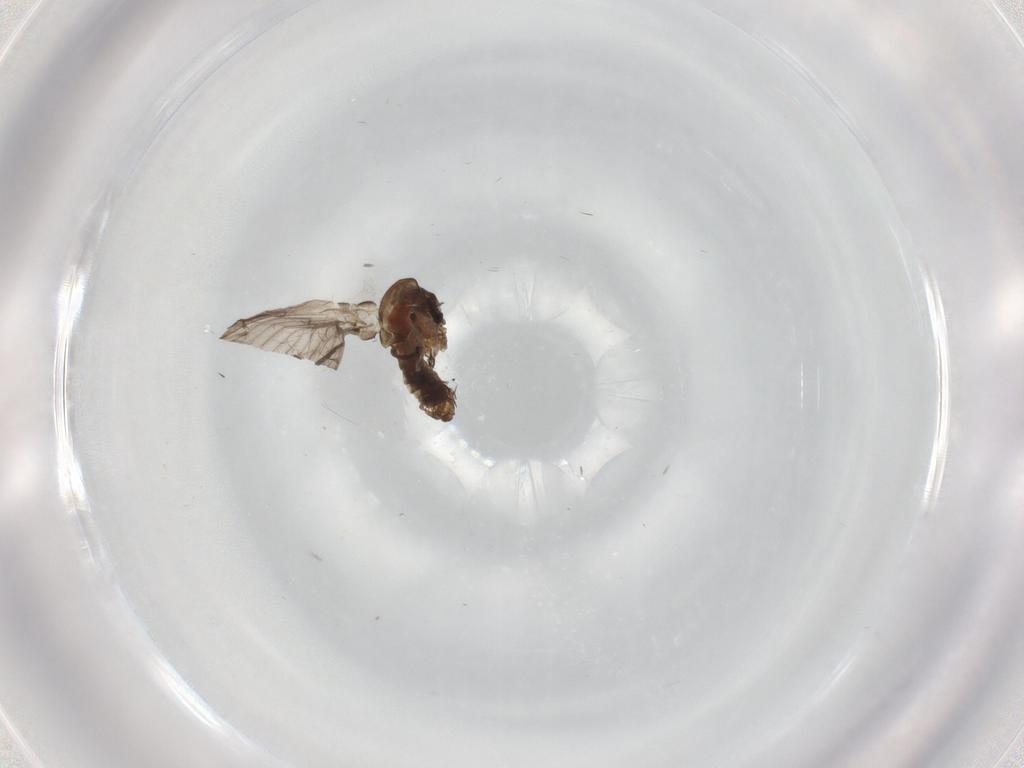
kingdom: Animalia
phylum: Arthropoda
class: Insecta
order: Diptera
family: Psychodidae
